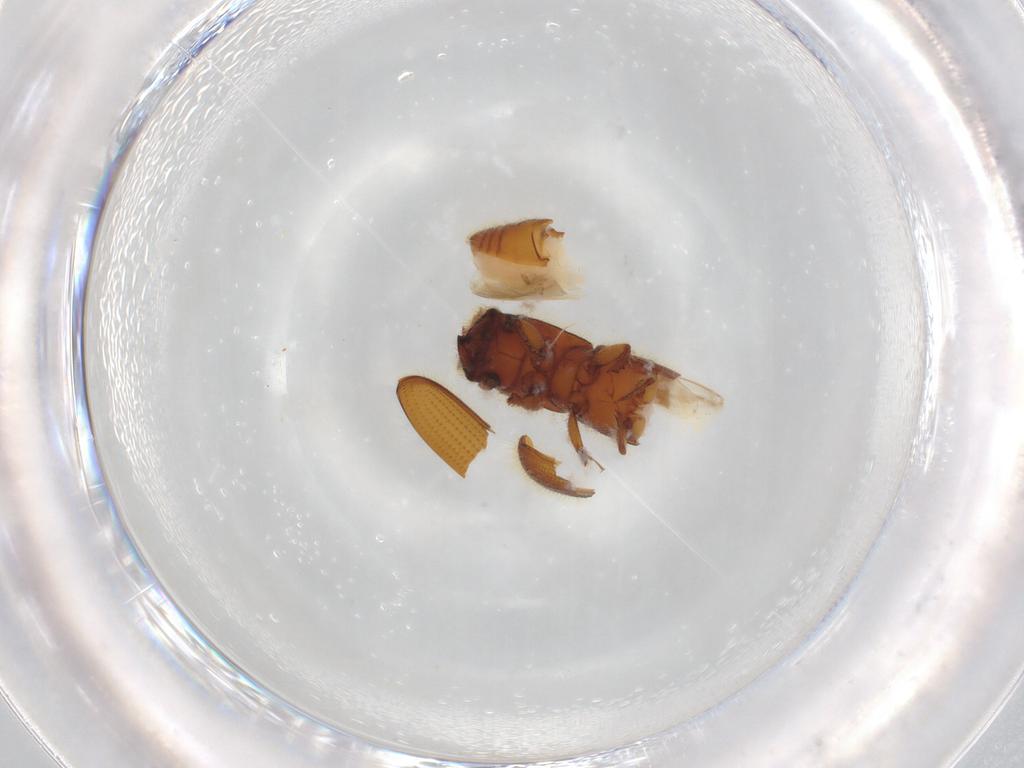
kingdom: Animalia
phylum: Arthropoda
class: Insecta
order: Coleoptera
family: Curculionidae
